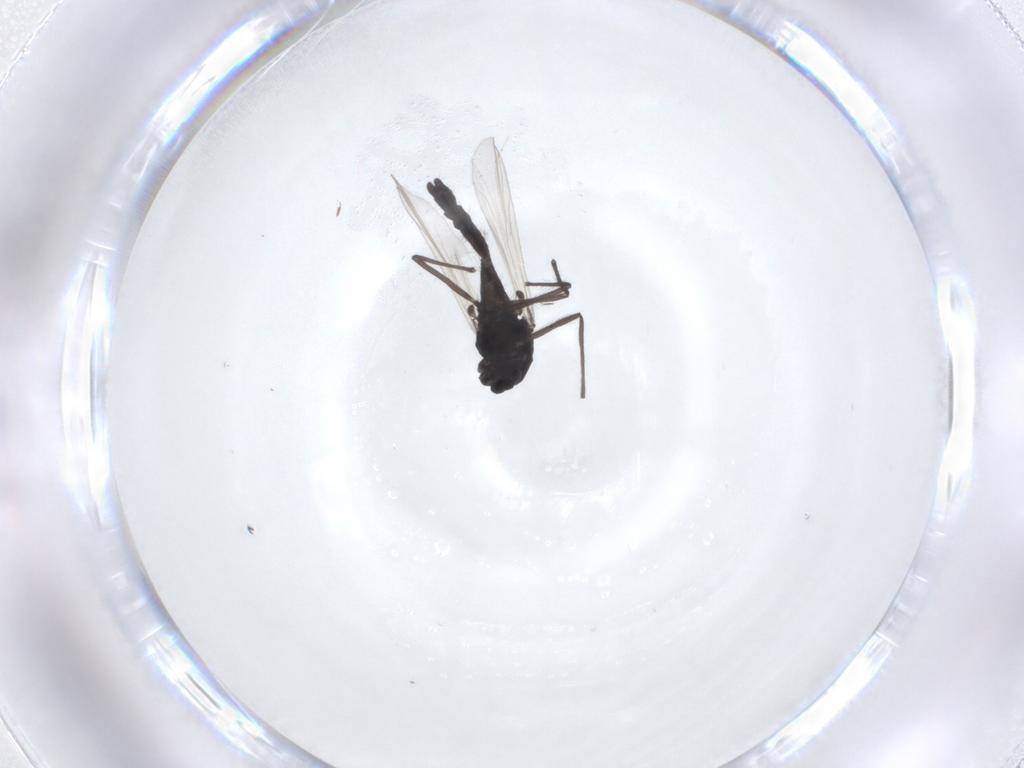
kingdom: Animalia
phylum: Arthropoda
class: Insecta
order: Diptera
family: Chironomidae
